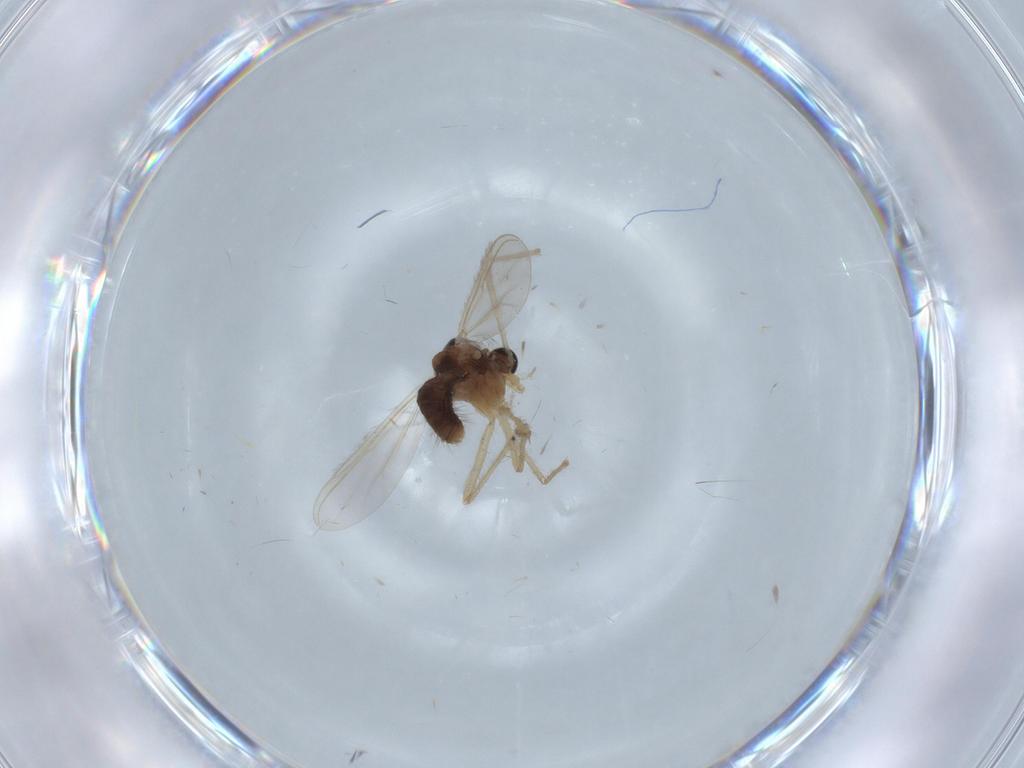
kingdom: Animalia
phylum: Arthropoda
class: Insecta
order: Diptera
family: Chironomidae
